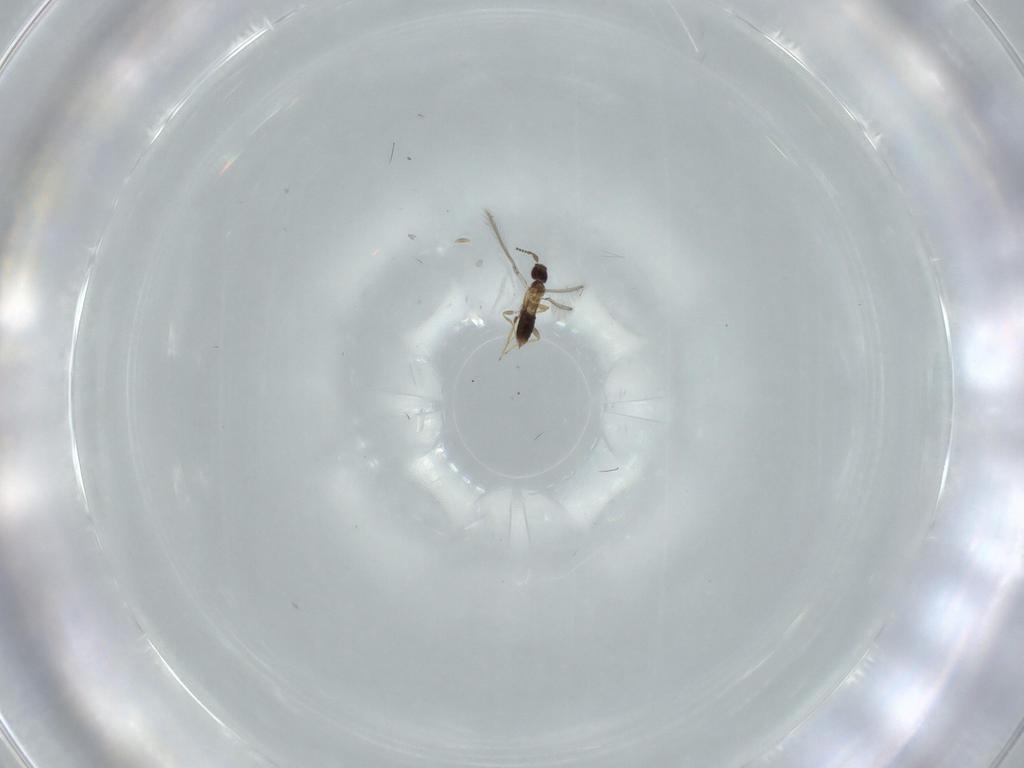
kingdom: Animalia
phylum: Arthropoda
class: Insecta
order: Hymenoptera
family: Mymaridae
